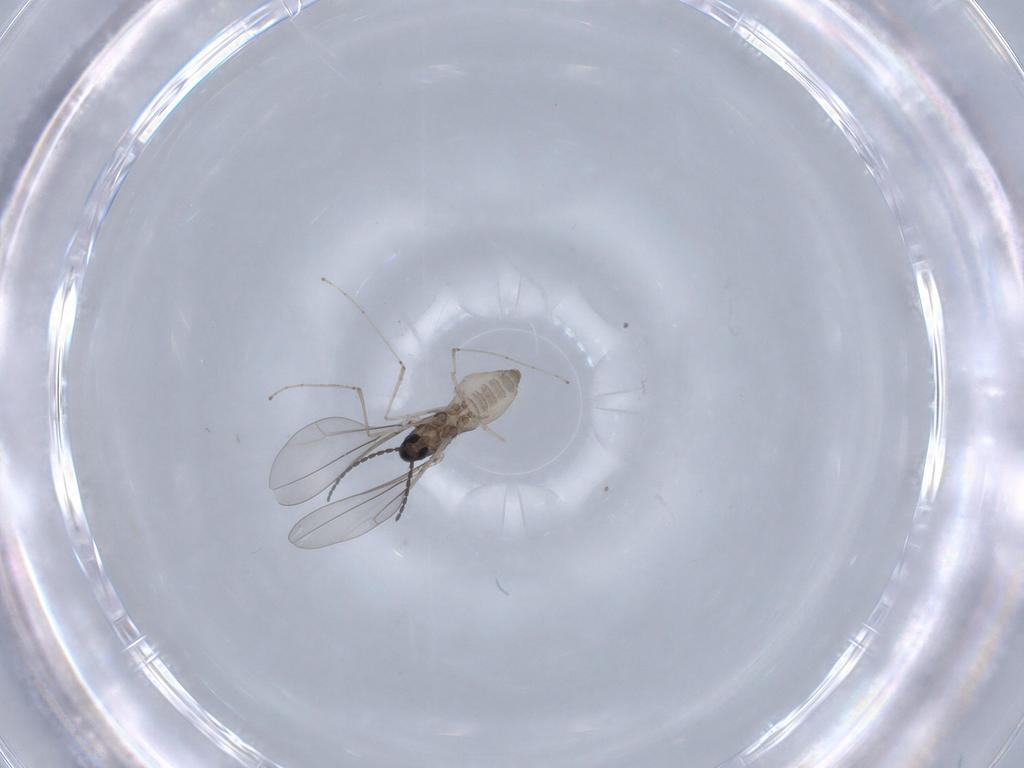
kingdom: Animalia
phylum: Arthropoda
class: Insecta
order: Diptera
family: Cecidomyiidae
